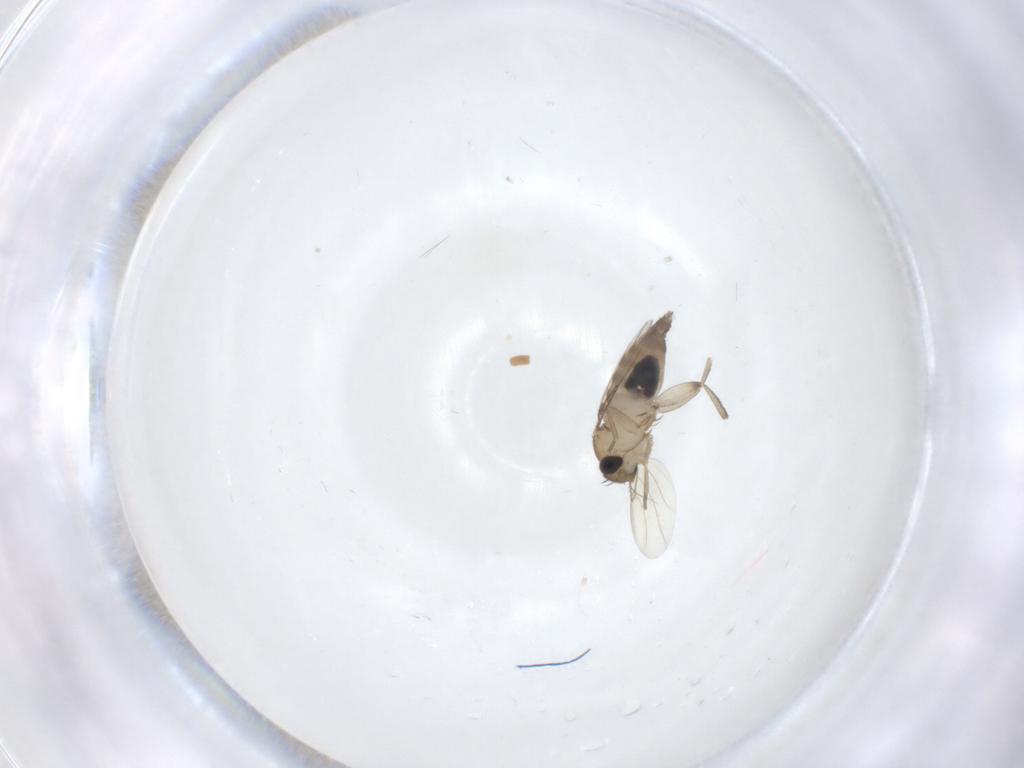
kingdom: Animalia
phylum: Arthropoda
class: Insecta
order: Diptera
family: Phoridae
